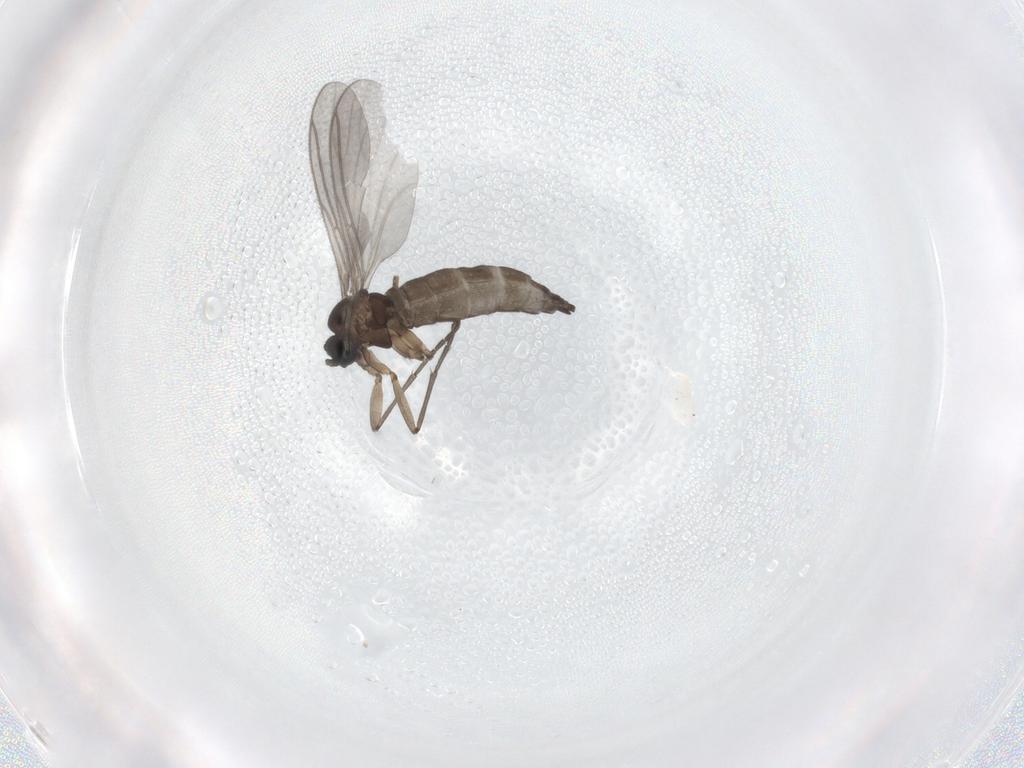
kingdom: Animalia
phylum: Arthropoda
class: Insecta
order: Diptera
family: Sciaridae
